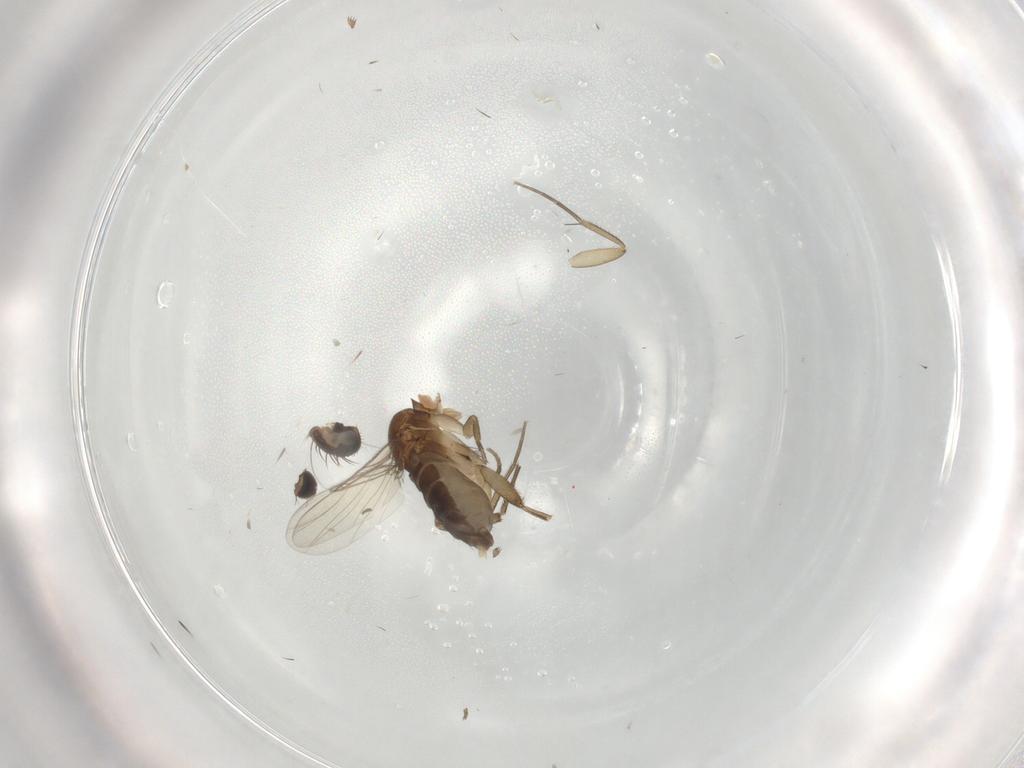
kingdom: Animalia
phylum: Arthropoda
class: Insecta
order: Diptera
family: Phoridae
